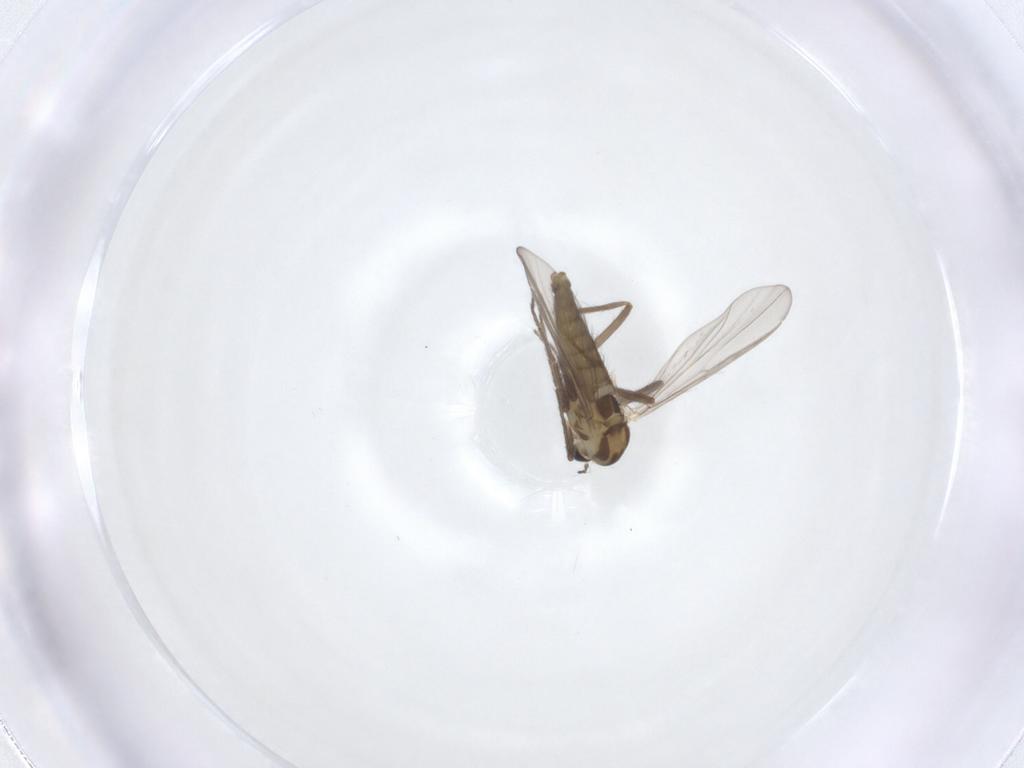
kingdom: Animalia
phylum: Arthropoda
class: Insecta
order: Diptera
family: Chironomidae
